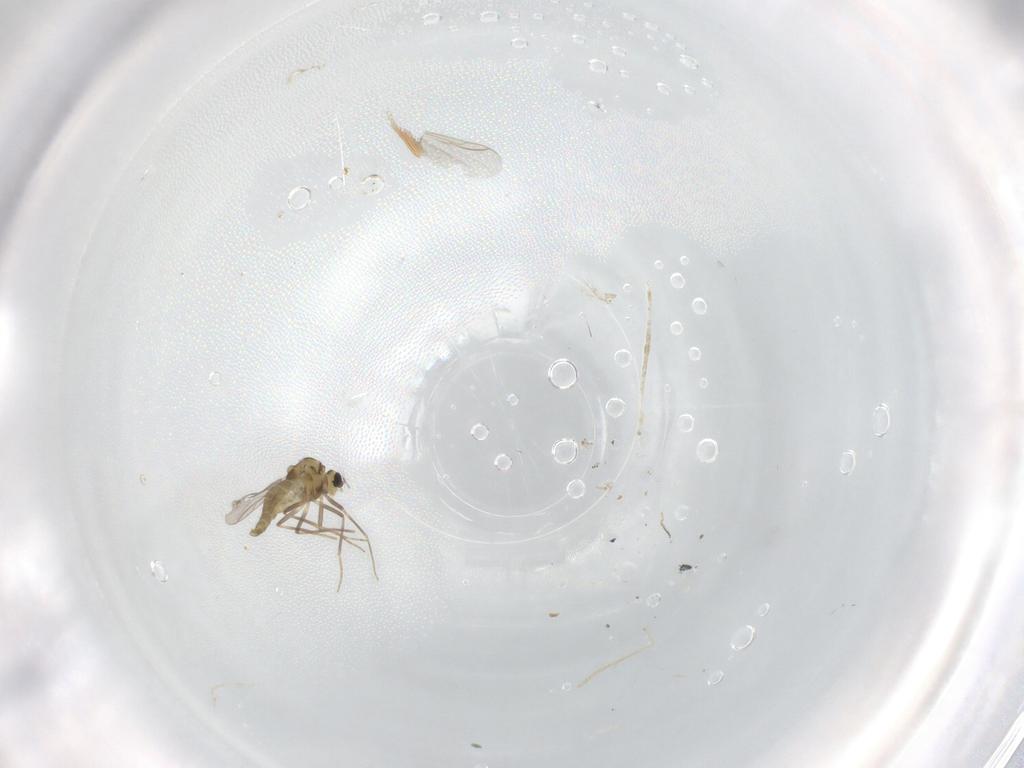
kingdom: Animalia
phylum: Arthropoda
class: Insecta
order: Diptera
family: Chironomidae
